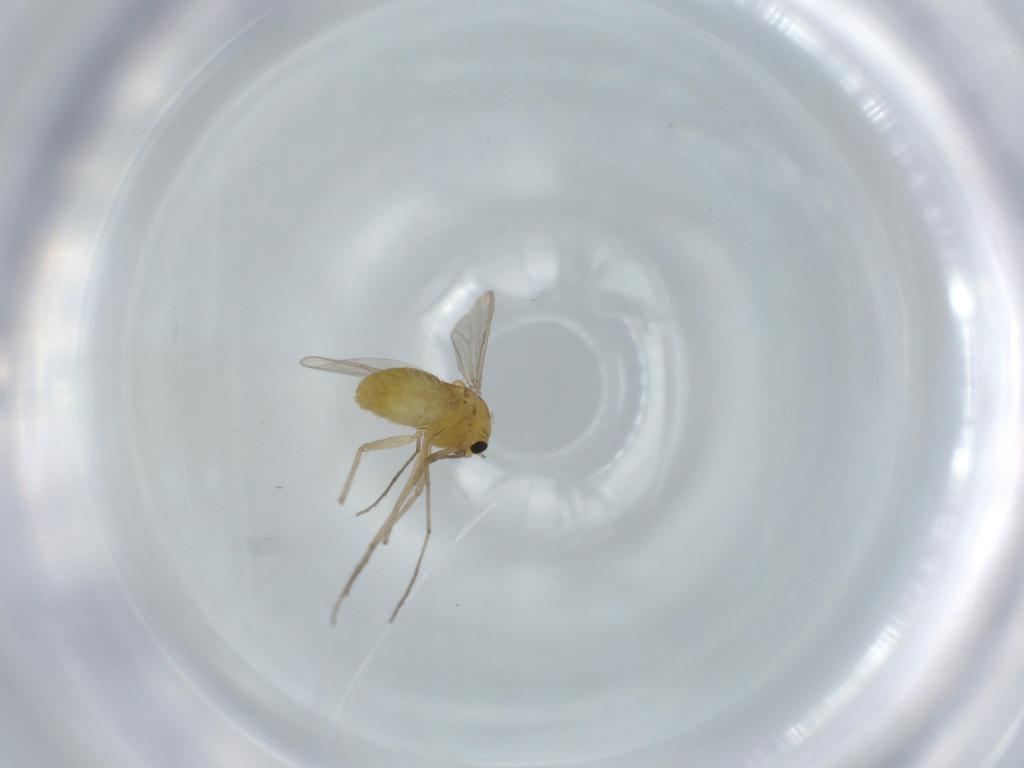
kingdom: Animalia
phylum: Arthropoda
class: Insecta
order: Diptera
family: Chironomidae
